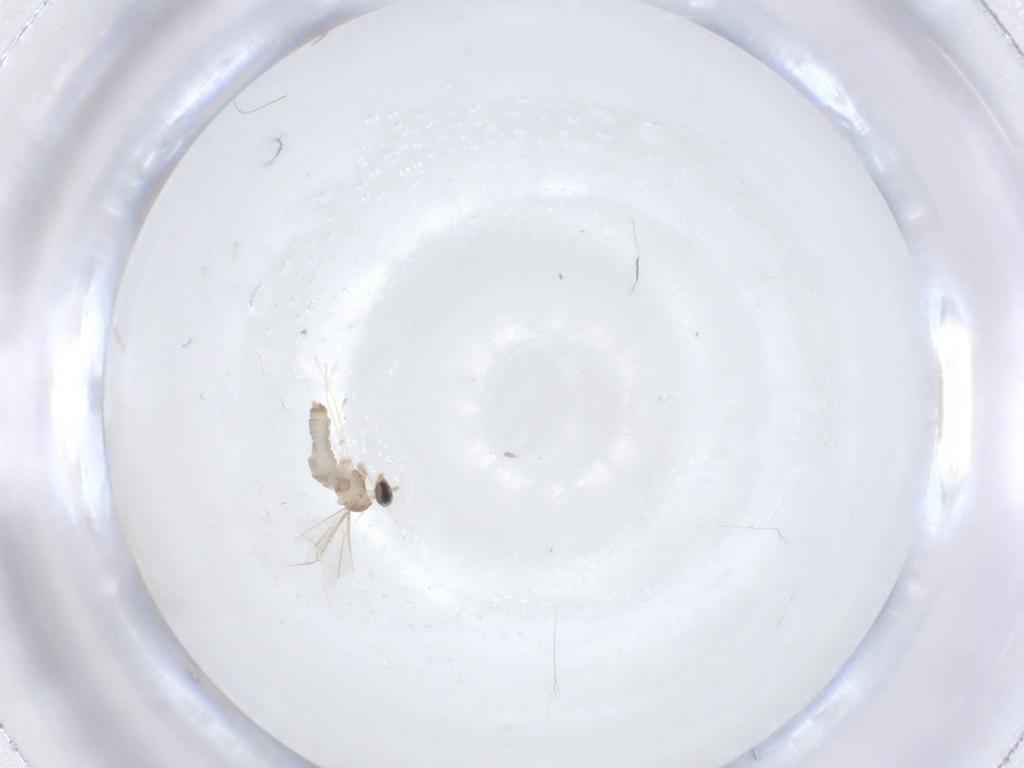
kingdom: Animalia
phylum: Arthropoda
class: Insecta
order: Diptera
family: Cecidomyiidae
